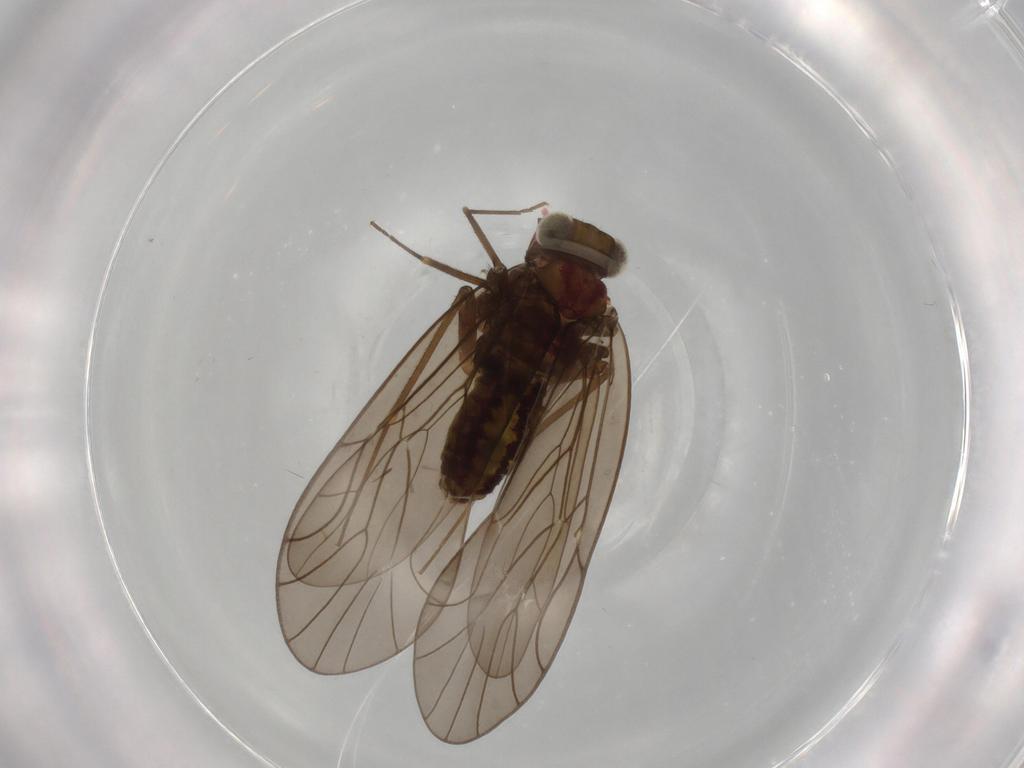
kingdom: Animalia
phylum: Arthropoda
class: Insecta
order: Psocodea
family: Philotarsidae
